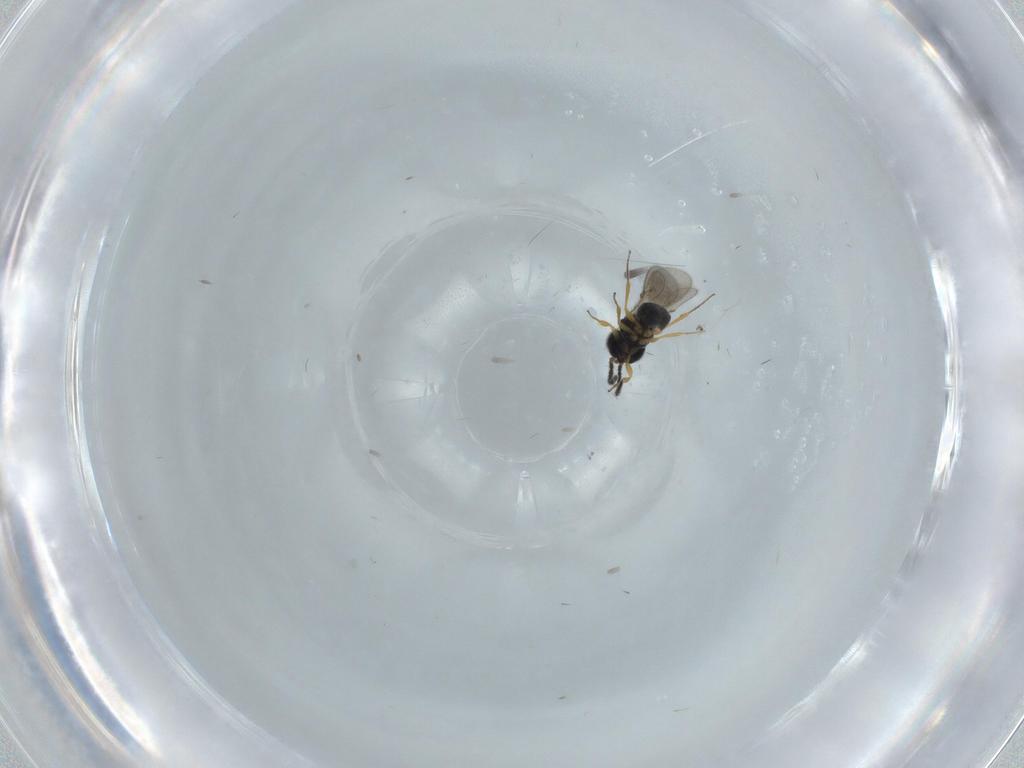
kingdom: Animalia
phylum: Arthropoda
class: Insecta
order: Hymenoptera
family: Scelionidae
